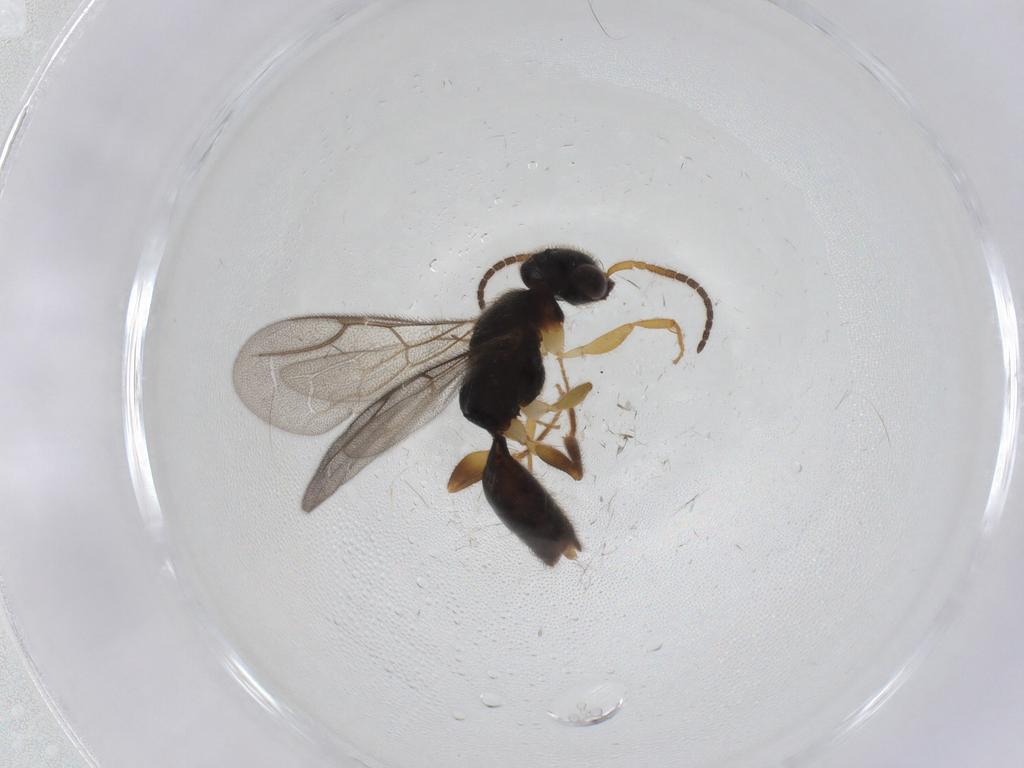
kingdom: Animalia
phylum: Arthropoda
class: Insecta
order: Hymenoptera
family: Bethylidae
